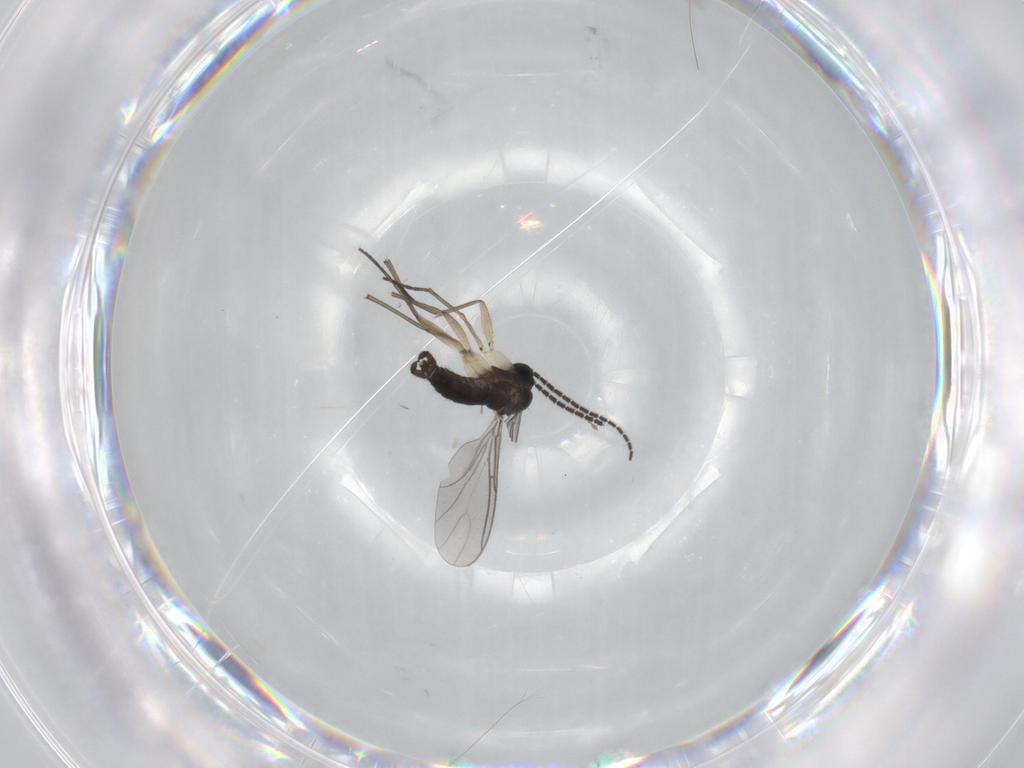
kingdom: Animalia
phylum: Arthropoda
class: Insecta
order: Diptera
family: Sciaridae
